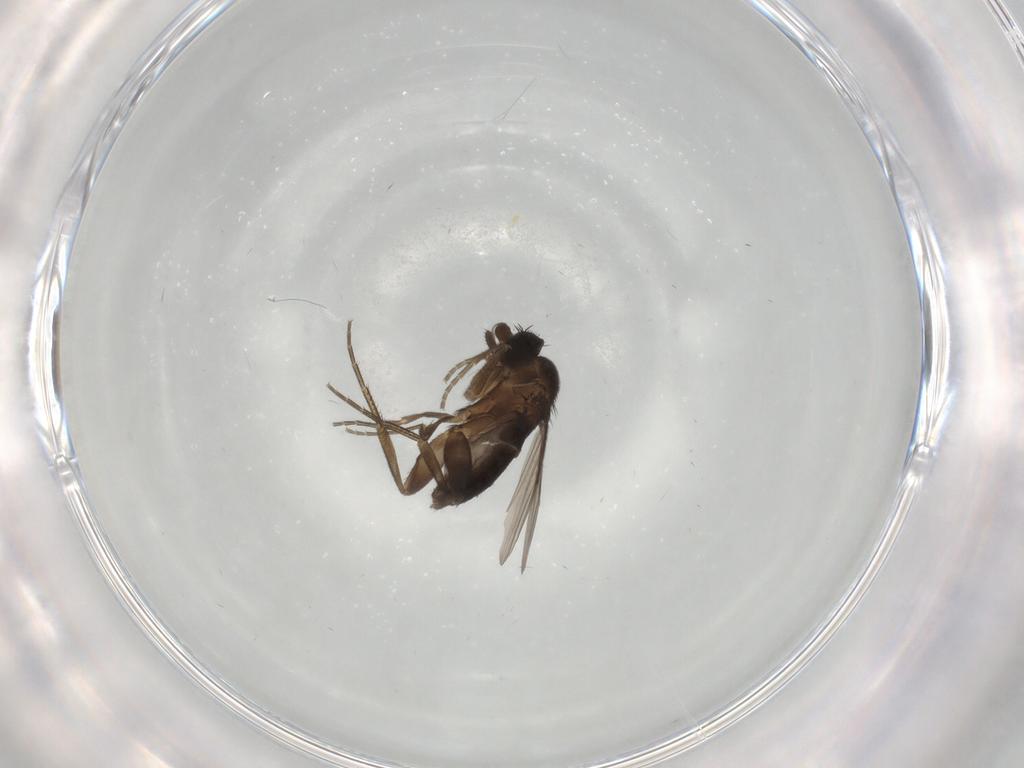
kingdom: Animalia
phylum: Arthropoda
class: Insecta
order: Diptera
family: Phoridae
